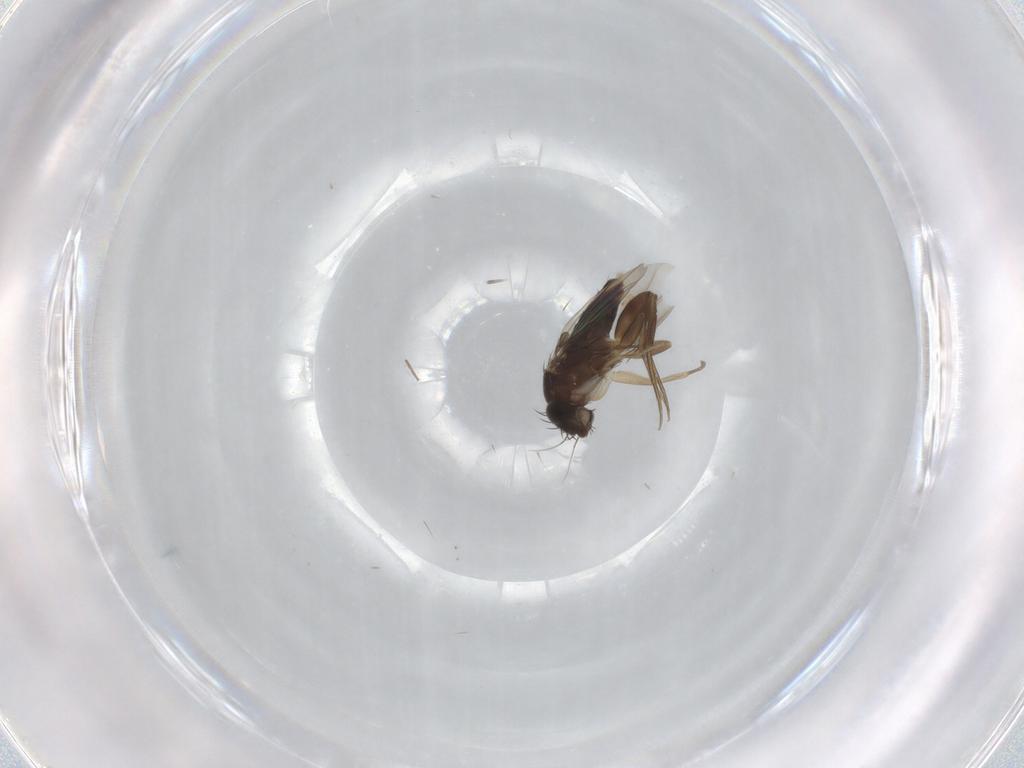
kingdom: Animalia
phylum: Arthropoda
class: Insecta
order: Diptera
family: Phoridae
